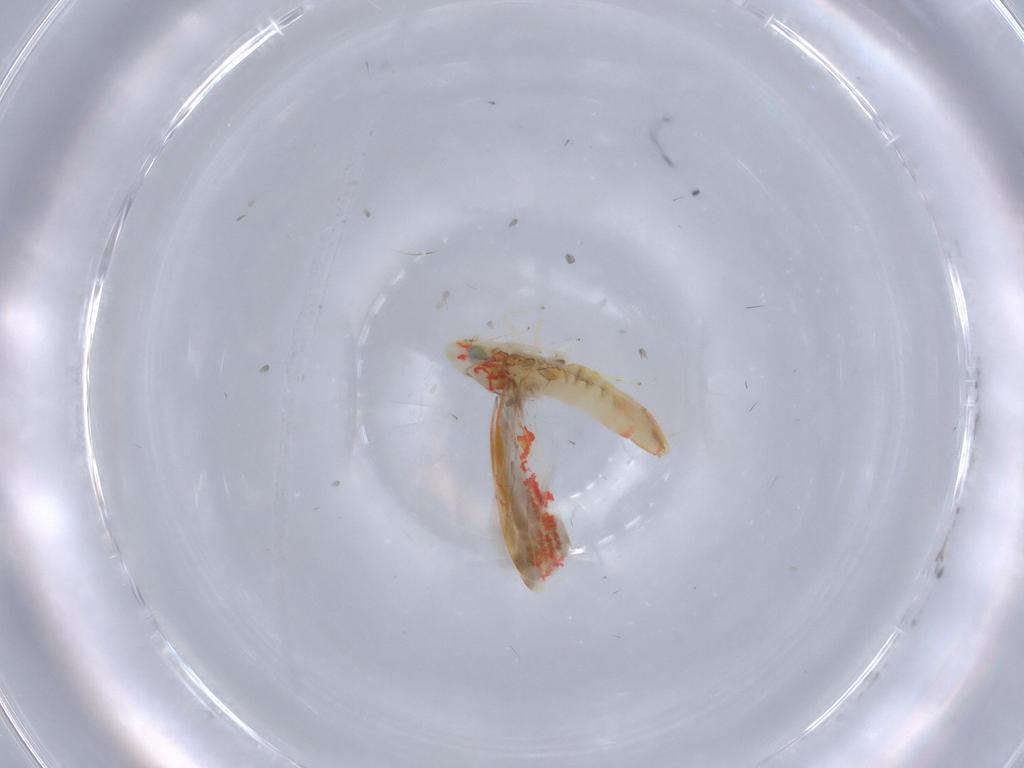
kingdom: Animalia
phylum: Arthropoda
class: Insecta
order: Hemiptera
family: Cicadellidae
